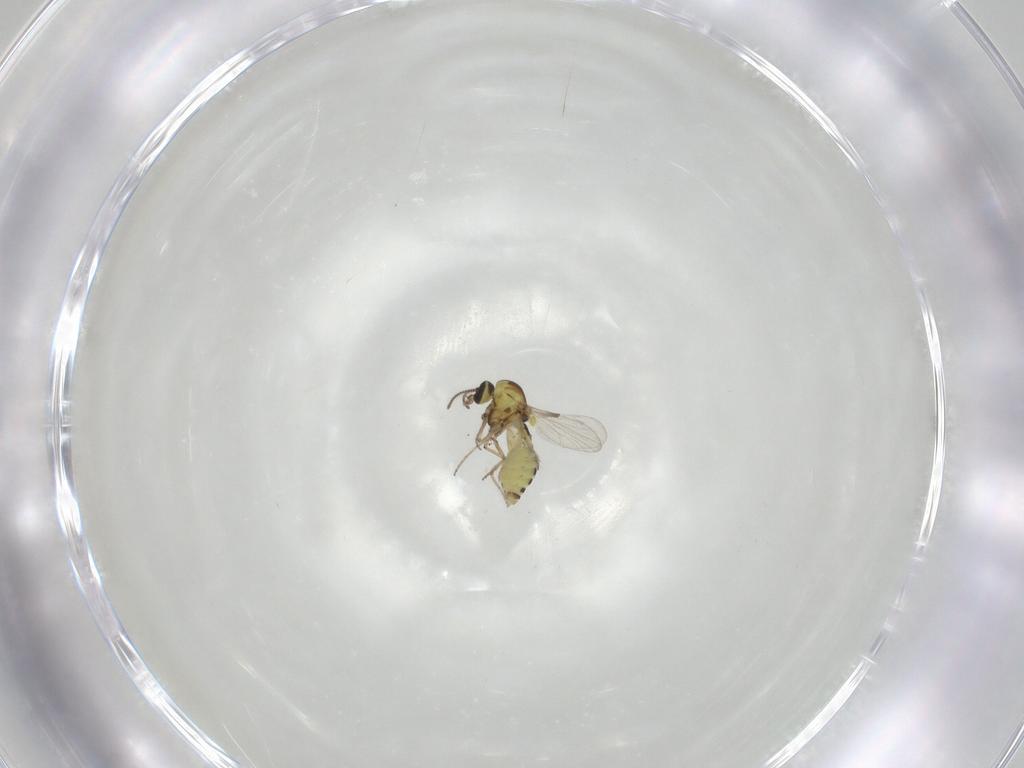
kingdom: Animalia
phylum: Arthropoda
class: Insecta
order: Diptera
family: Ceratopogonidae
